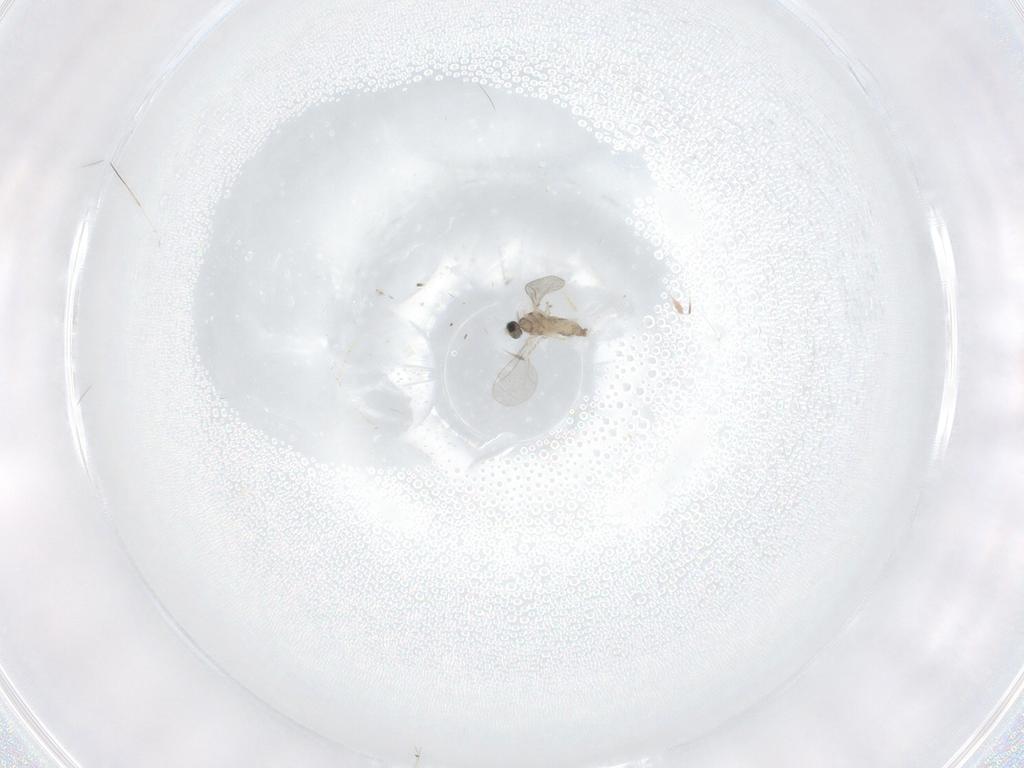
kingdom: Animalia
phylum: Arthropoda
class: Insecta
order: Diptera
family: Cecidomyiidae
